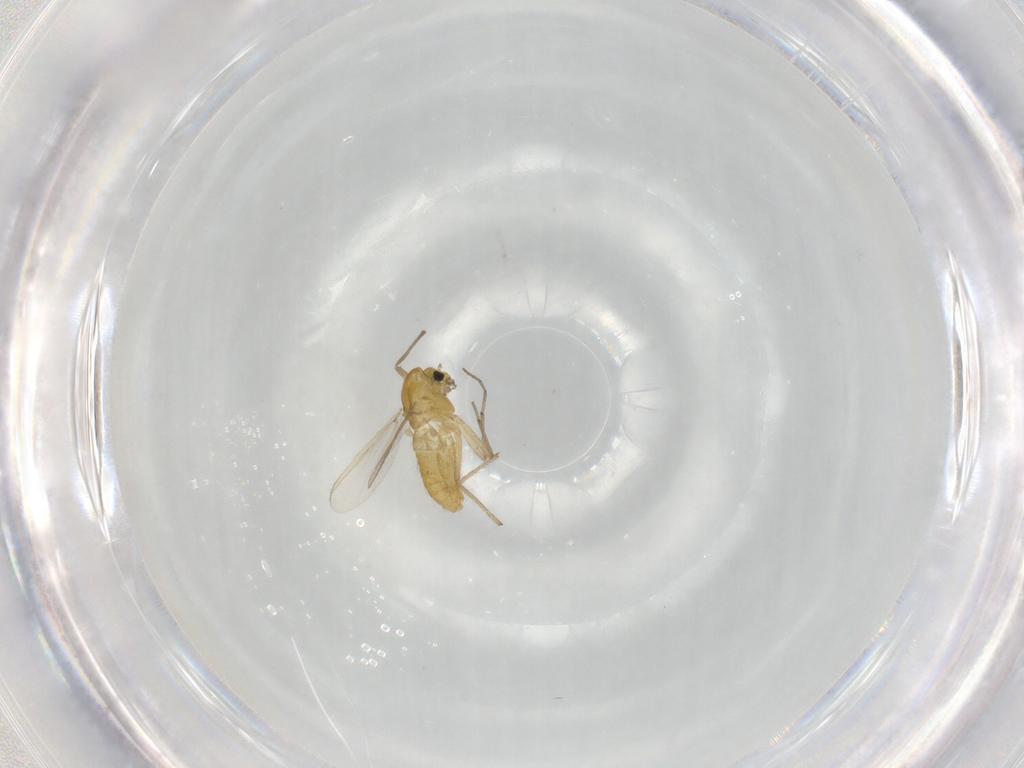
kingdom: Animalia
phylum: Arthropoda
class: Insecta
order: Diptera
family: Chironomidae
